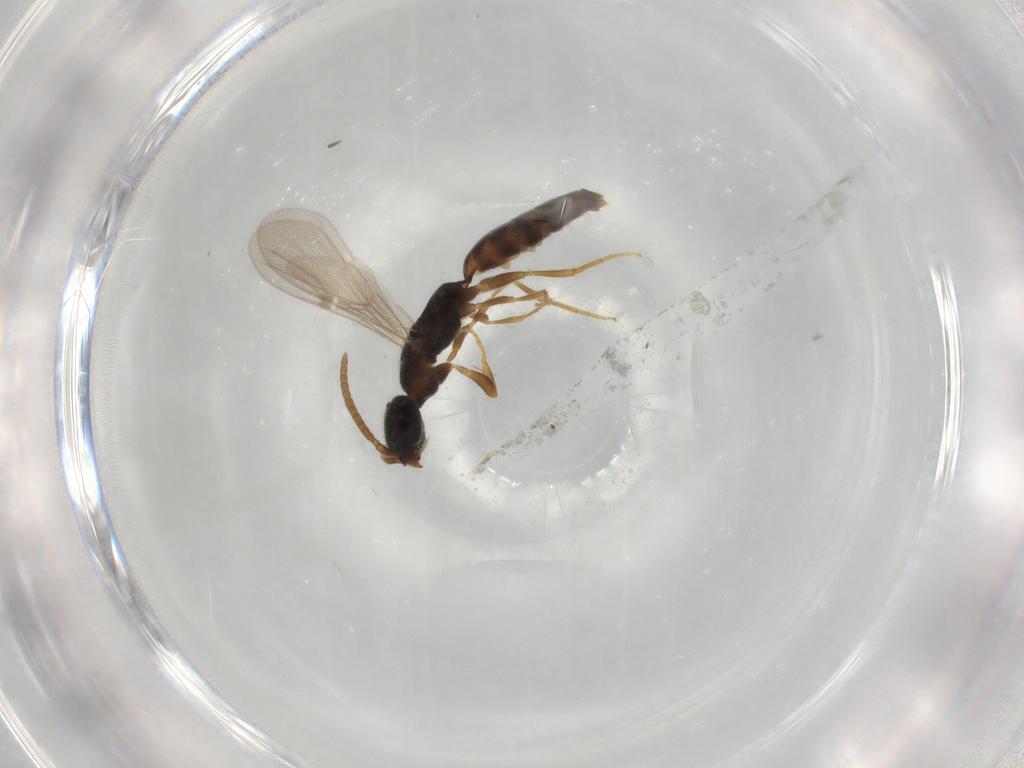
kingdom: Animalia
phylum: Arthropoda
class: Insecta
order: Hymenoptera
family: Bethylidae
